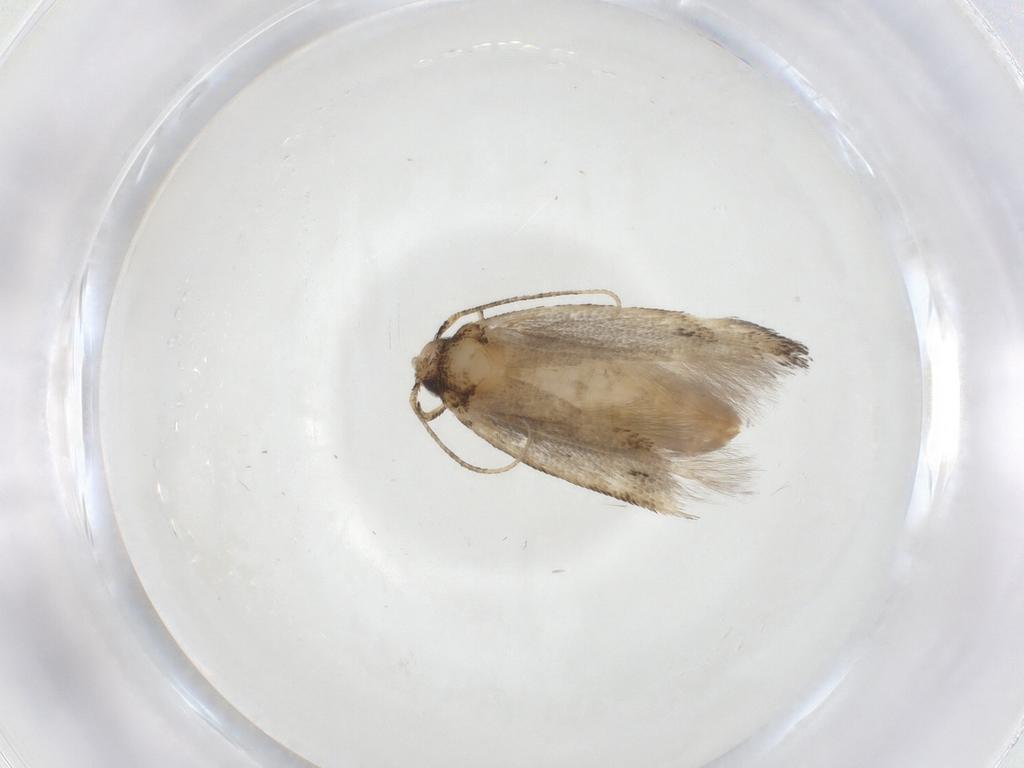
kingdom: Animalia
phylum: Arthropoda
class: Insecta
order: Lepidoptera
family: Gelechiidae
